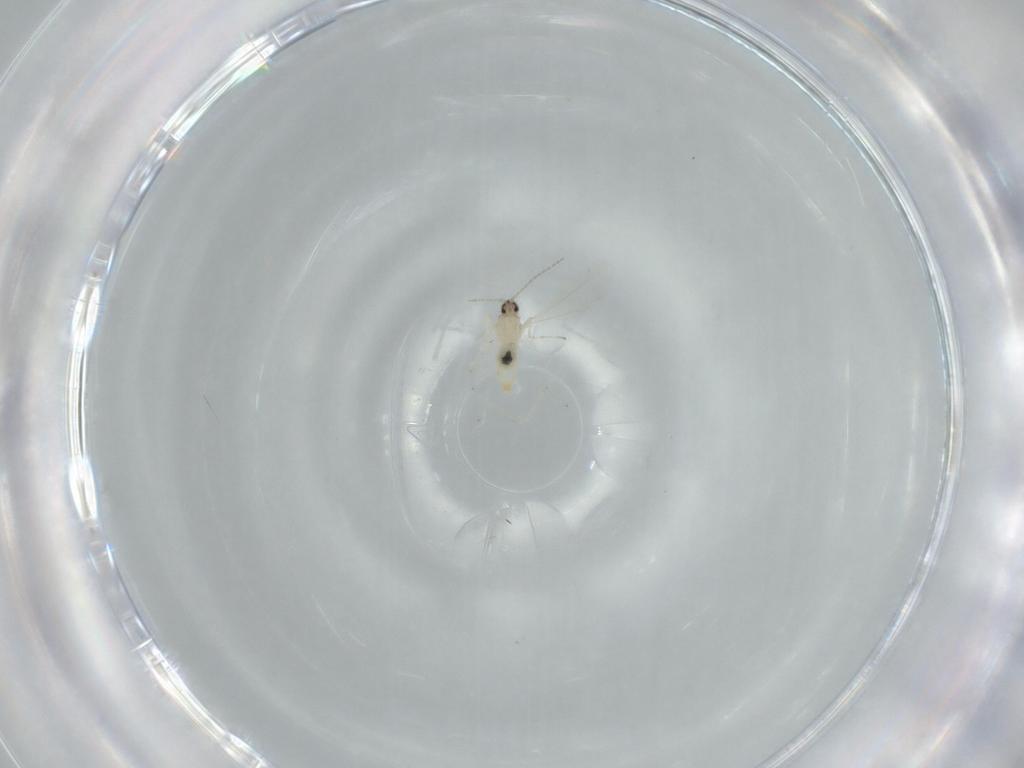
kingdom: Animalia
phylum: Arthropoda
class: Insecta
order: Diptera
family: Cecidomyiidae
